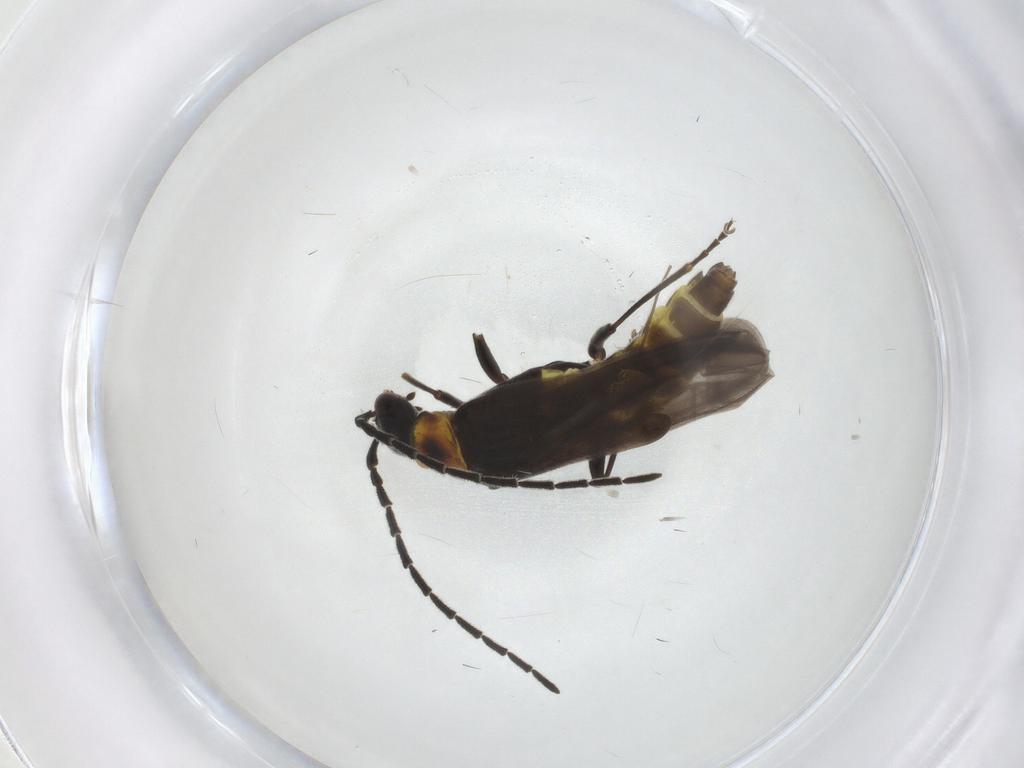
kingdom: Animalia
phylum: Arthropoda
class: Insecta
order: Coleoptera
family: Cantharidae
